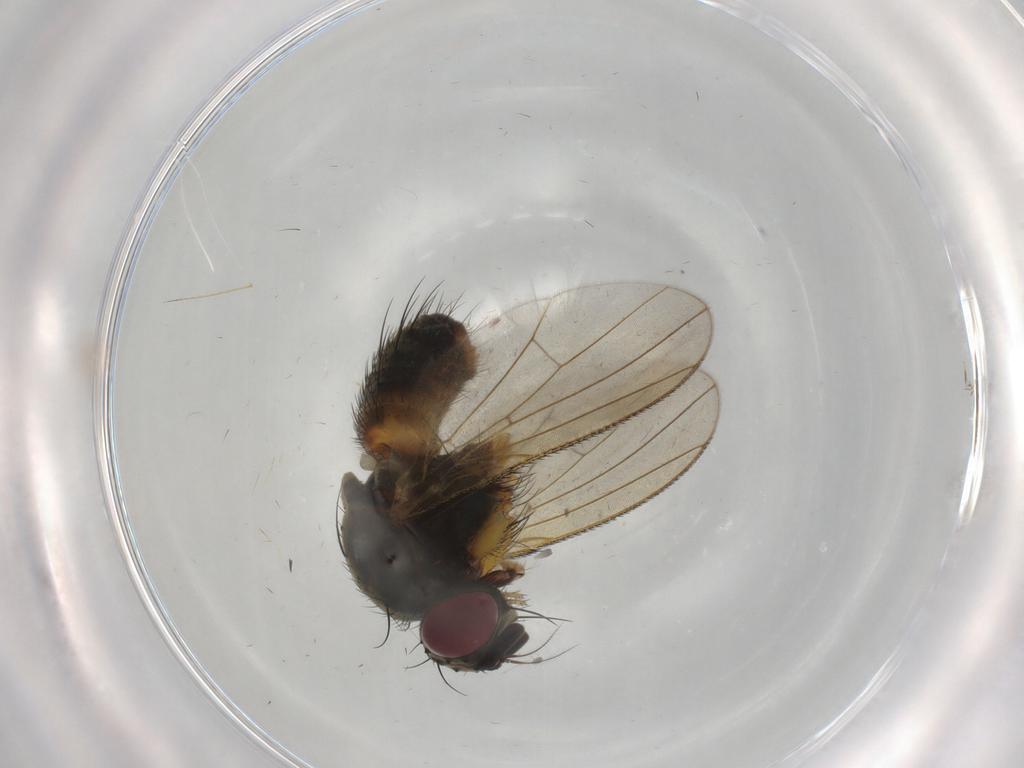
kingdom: Animalia
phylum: Arthropoda
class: Insecta
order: Diptera
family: Muscidae
